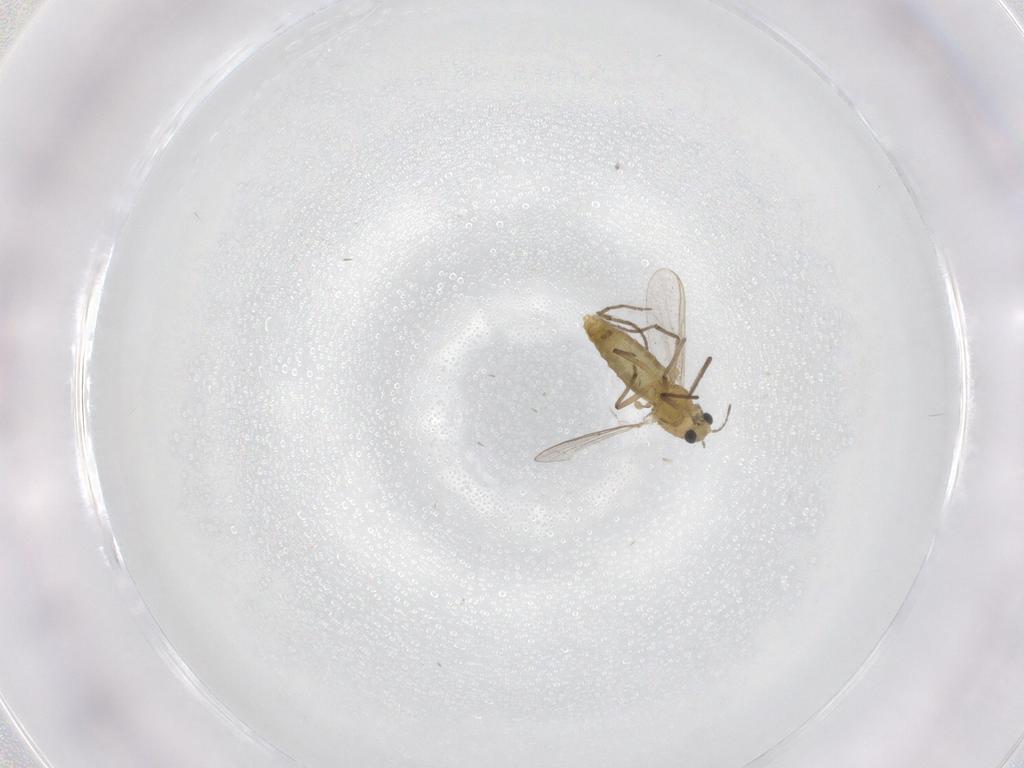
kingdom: Animalia
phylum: Arthropoda
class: Insecta
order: Diptera
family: Chironomidae
